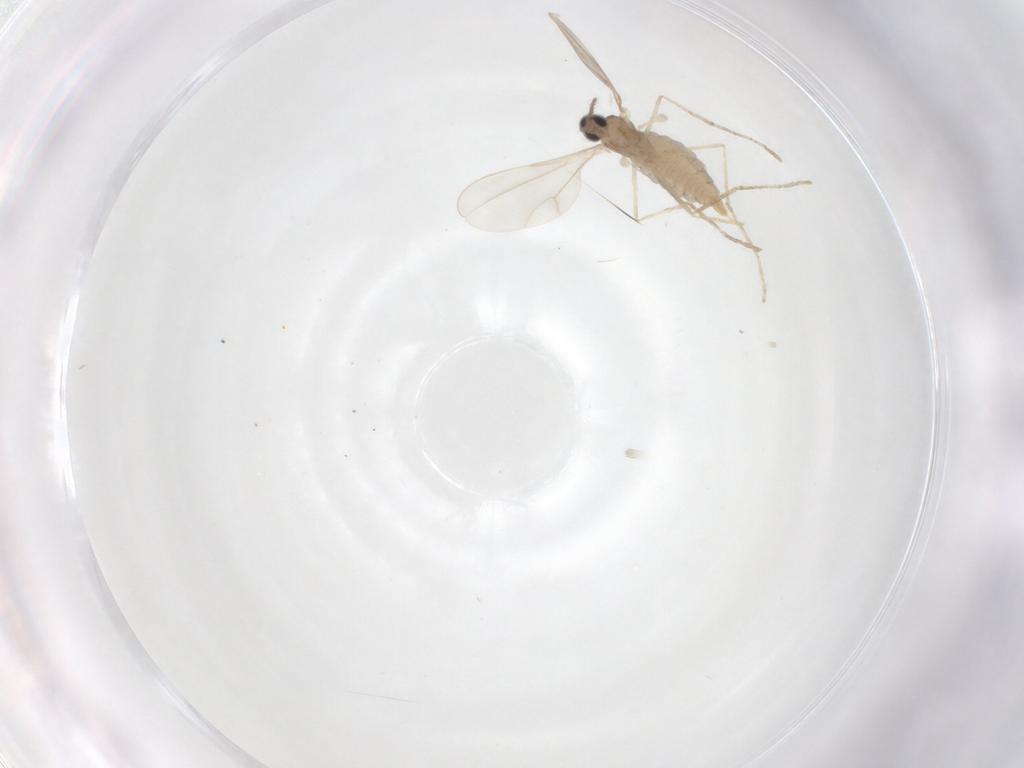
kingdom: Animalia
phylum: Arthropoda
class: Insecta
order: Diptera
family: Cecidomyiidae
